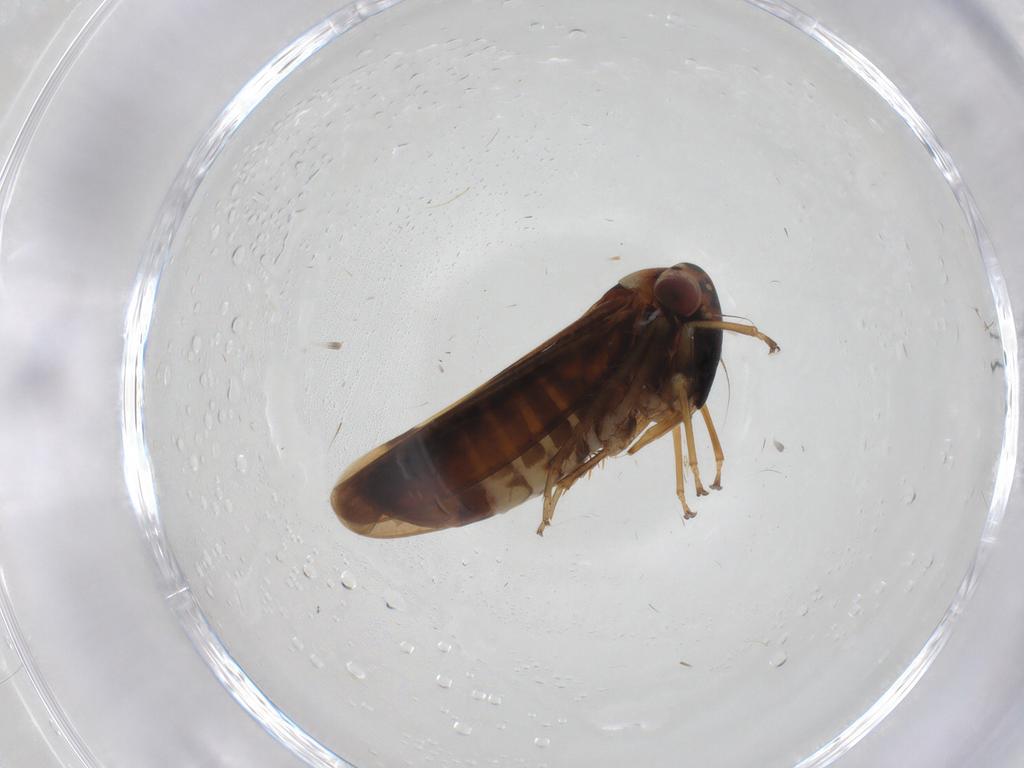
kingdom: Animalia
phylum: Arthropoda
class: Insecta
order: Hemiptera
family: Cicadellidae
